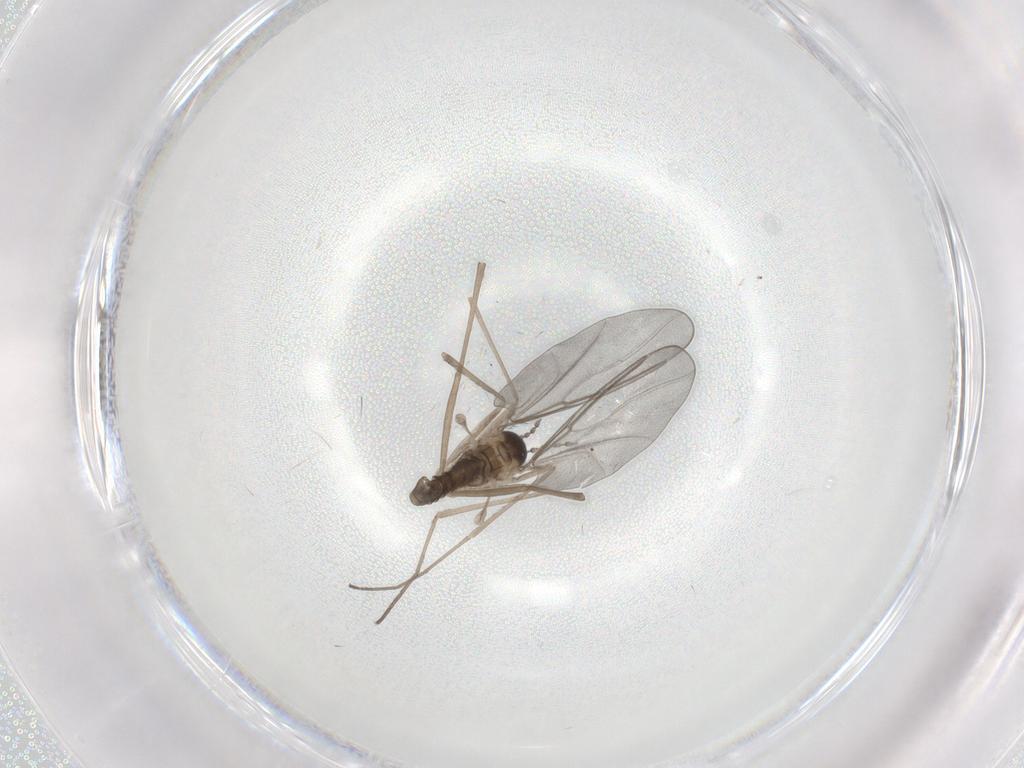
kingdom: Animalia
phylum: Arthropoda
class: Insecta
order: Diptera
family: Cecidomyiidae
